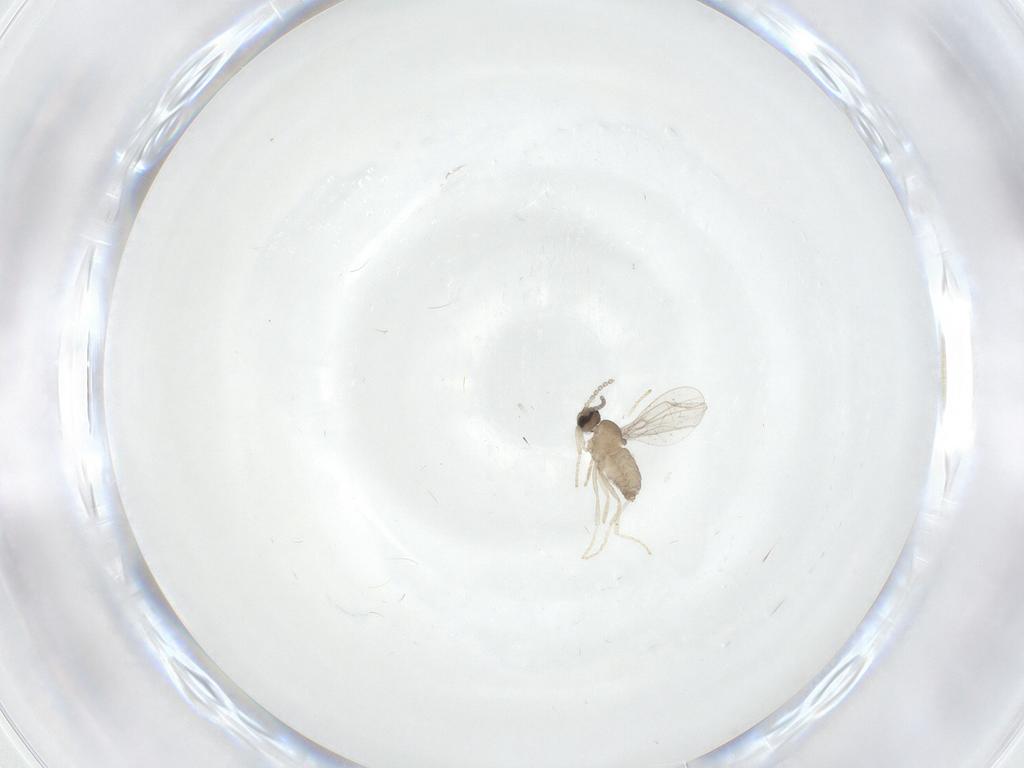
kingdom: Animalia
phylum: Arthropoda
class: Insecta
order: Diptera
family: Cecidomyiidae
